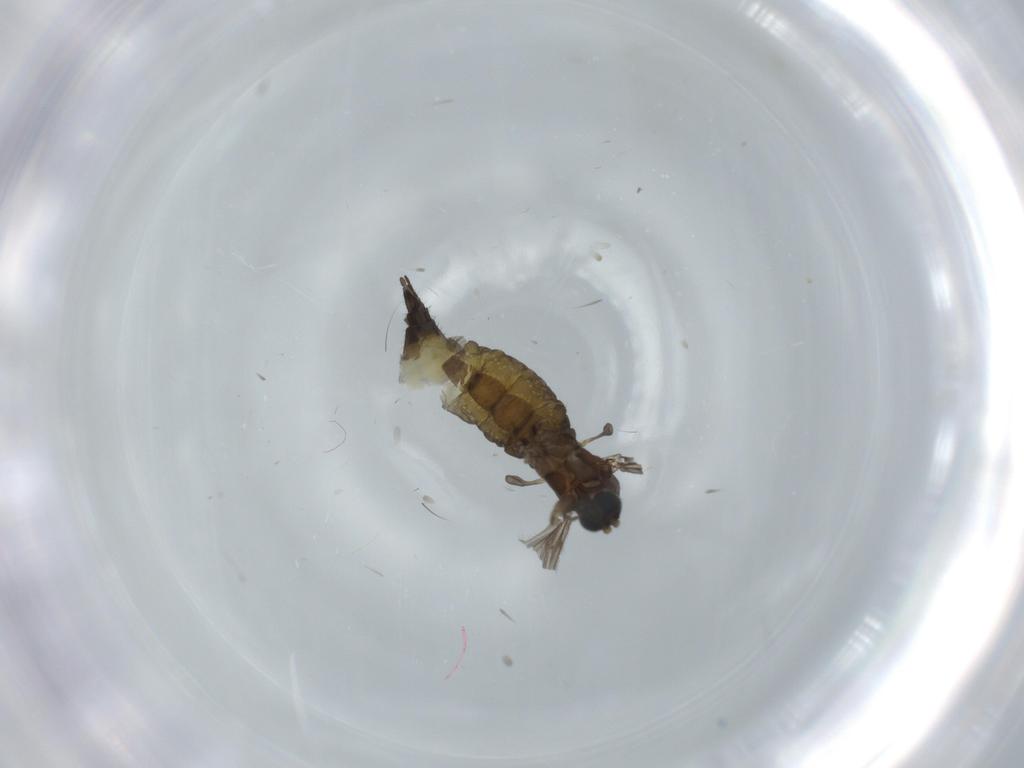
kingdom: Animalia
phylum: Arthropoda
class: Insecta
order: Diptera
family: Sciaridae
